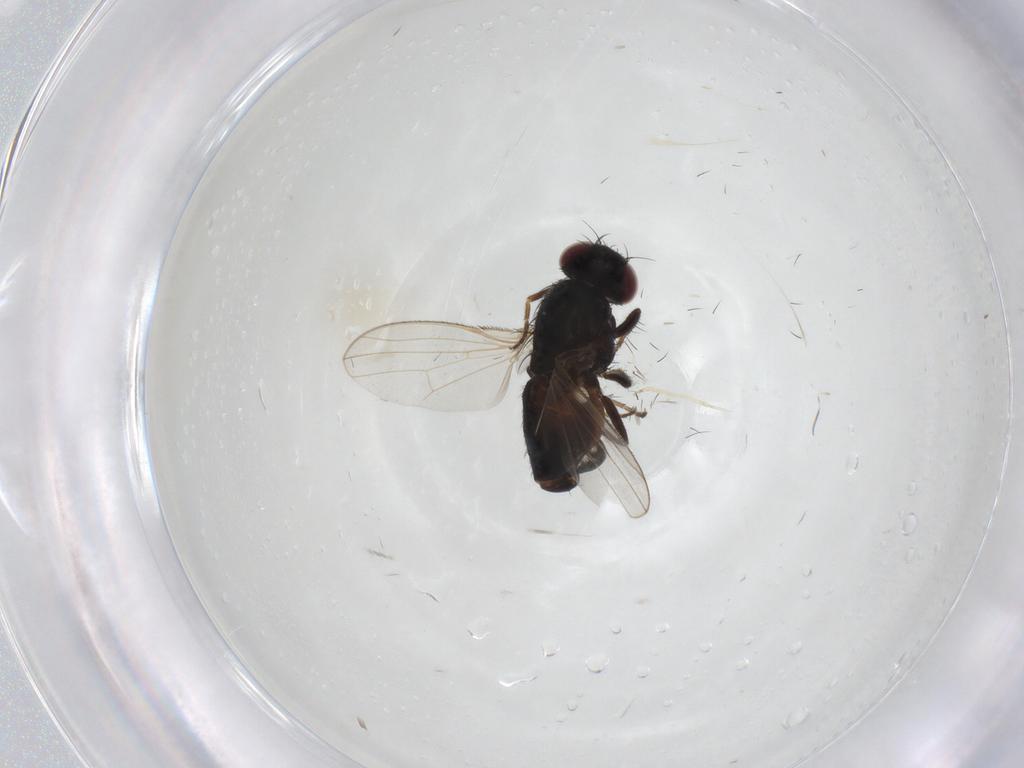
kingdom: Animalia
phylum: Arthropoda
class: Insecta
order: Diptera
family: Carnidae
